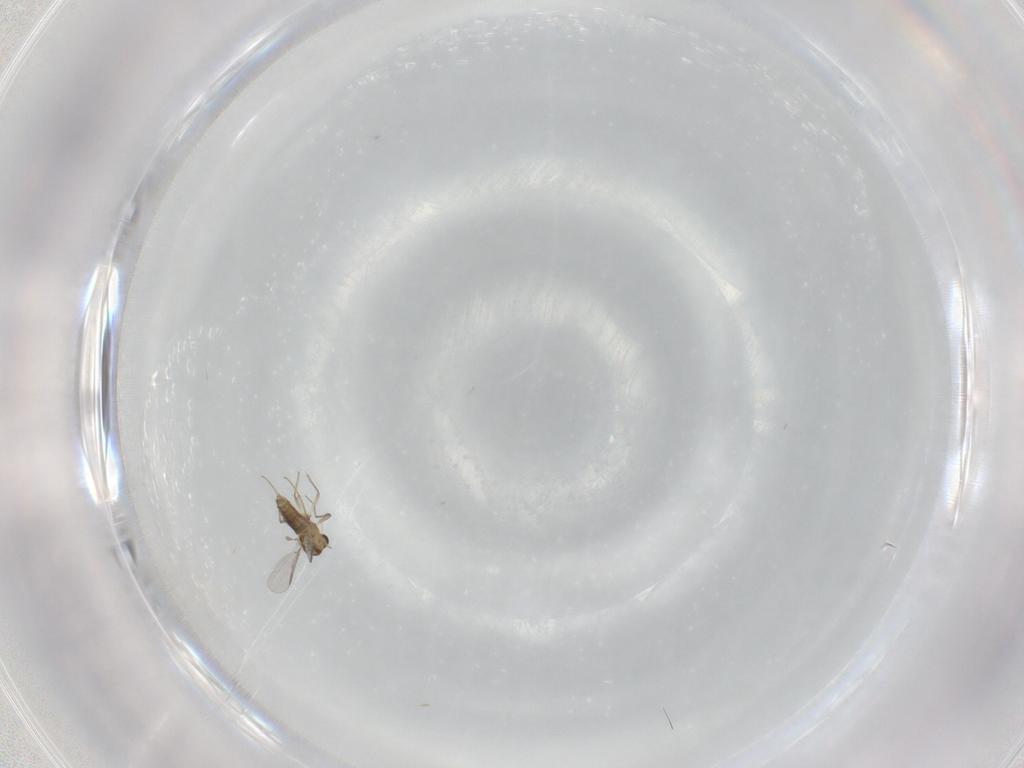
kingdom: Animalia
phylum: Arthropoda
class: Insecta
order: Diptera
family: Chironomidae
